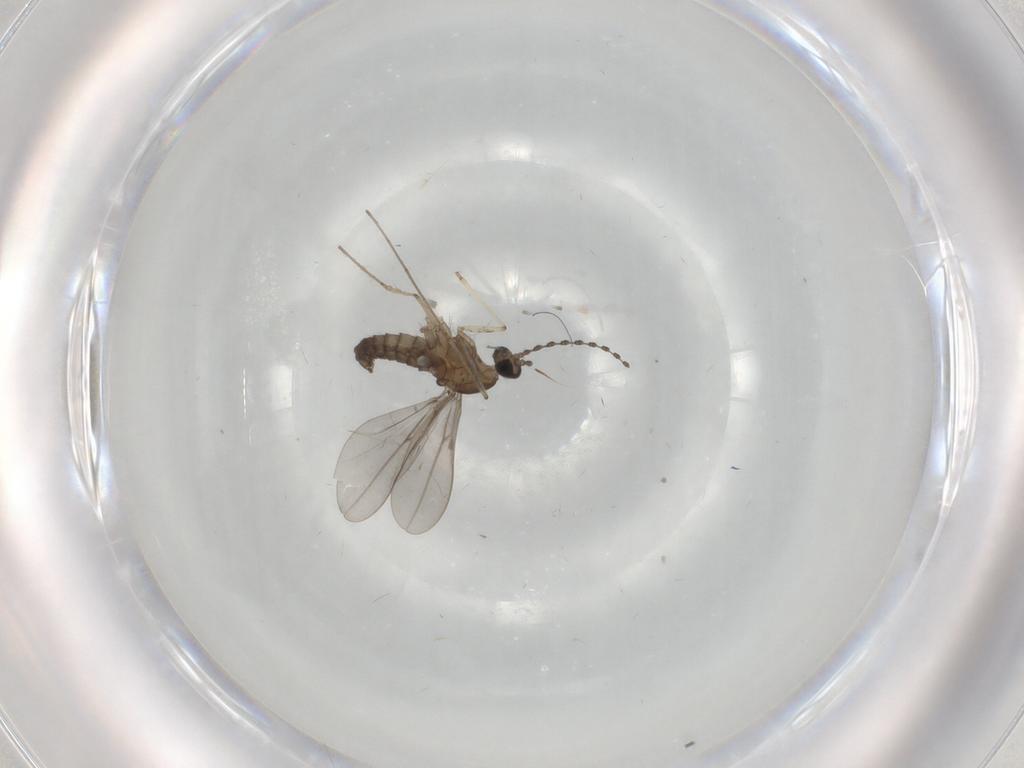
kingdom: Animalia
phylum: Arthropoda
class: Insecta
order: Diptera
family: Cecidomyiidae
